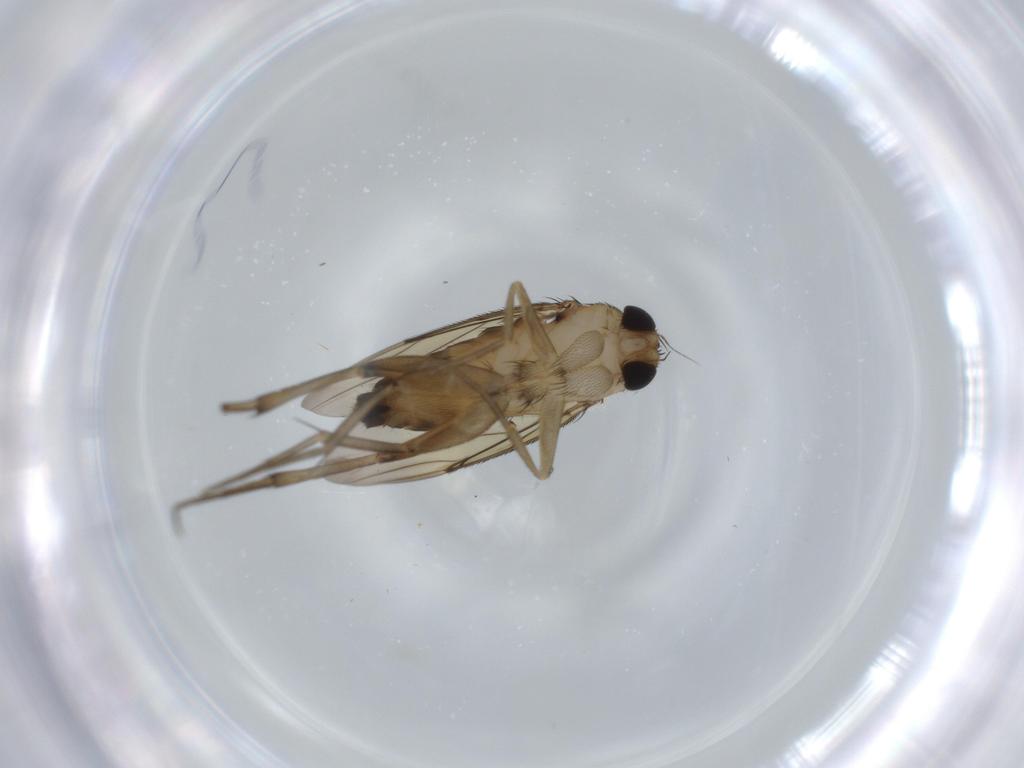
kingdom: Animalia
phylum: Arthropoda
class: Insecta
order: Diptera
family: Phoridae
